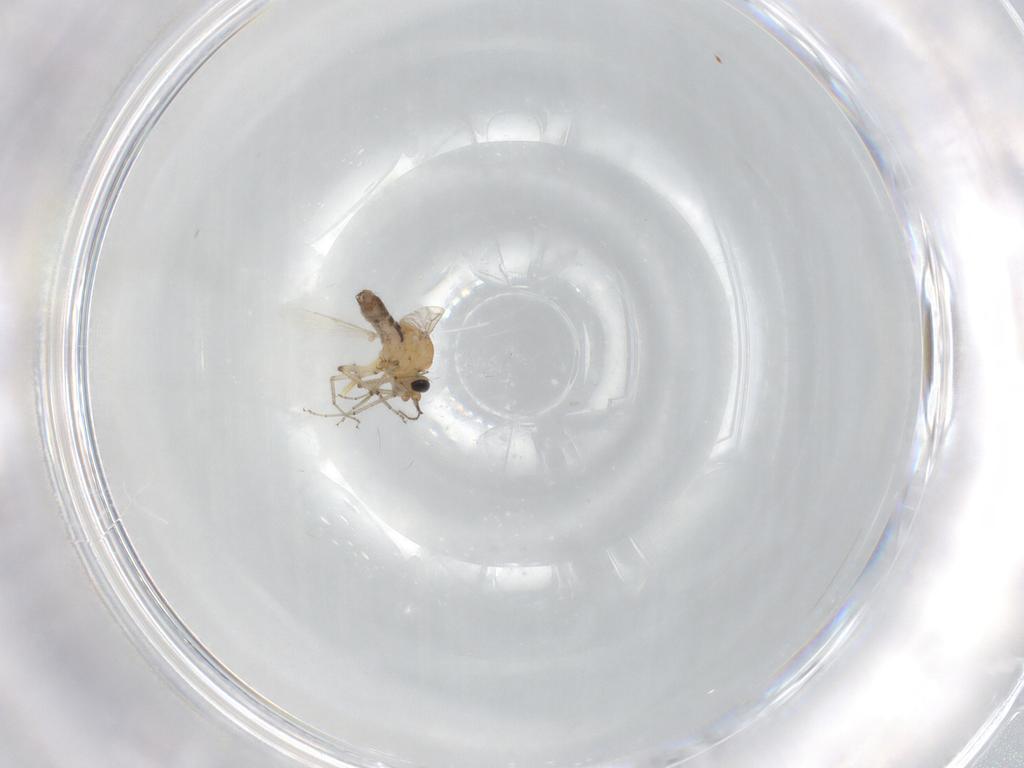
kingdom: Animalia
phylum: Arthropoda
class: Insecta
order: Diptera
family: Ceratopogonidae
